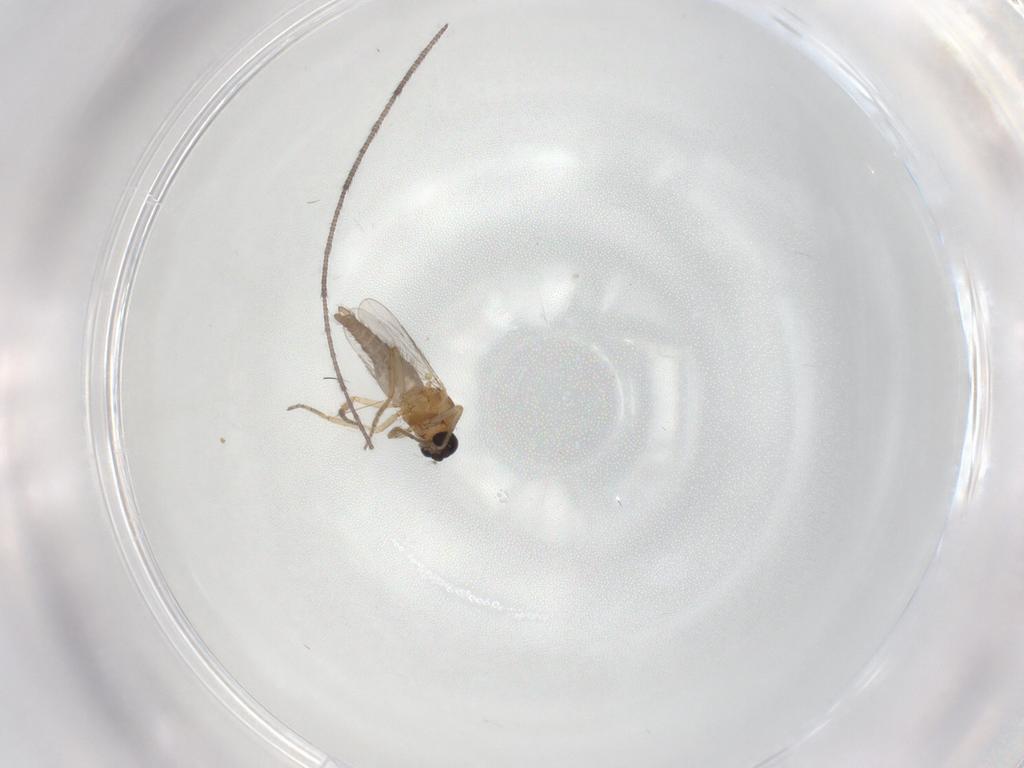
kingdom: Animalia
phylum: Arthropoda
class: Insecta
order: Diptera
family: Ceratopogonidae
